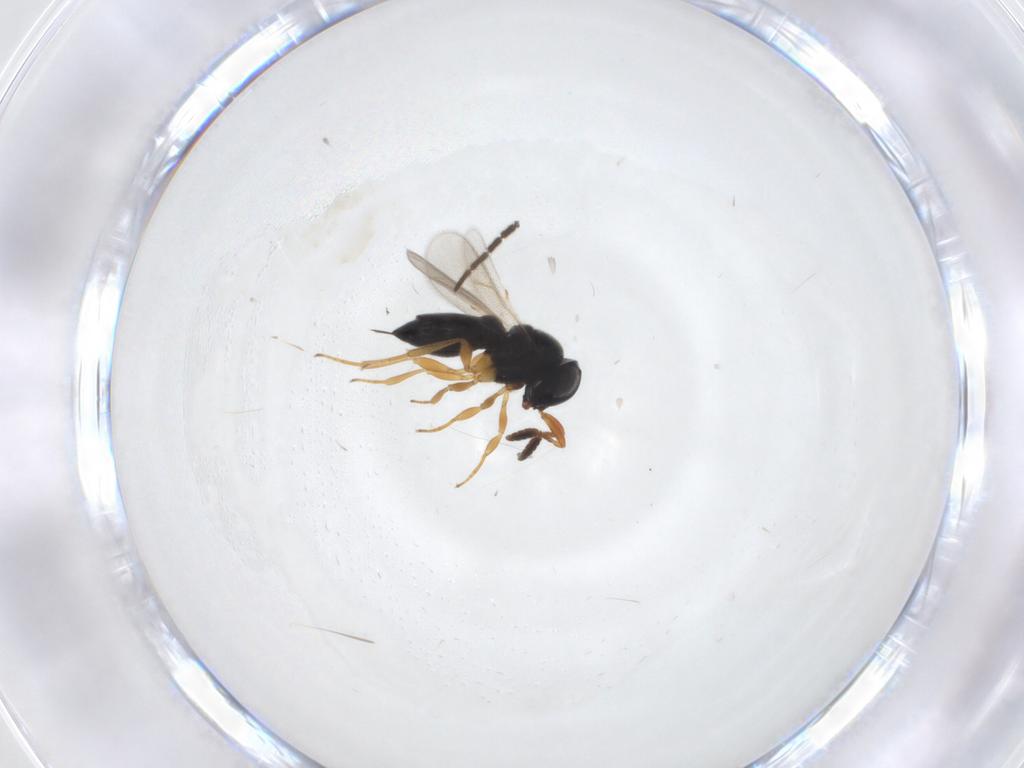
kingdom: Animalia
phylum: Arthropoda
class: Insecta
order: Hymenoptera
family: Scelionidae
